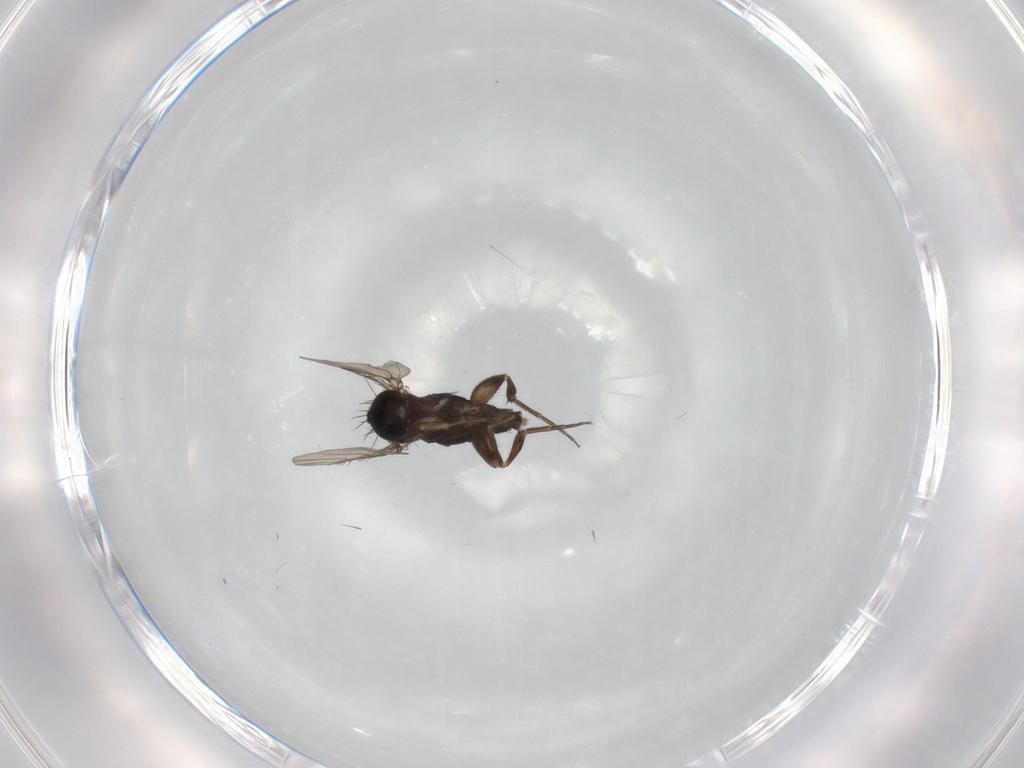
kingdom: Animalia
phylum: Arthropoda
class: Insecta
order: Diptera
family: Phoridae
